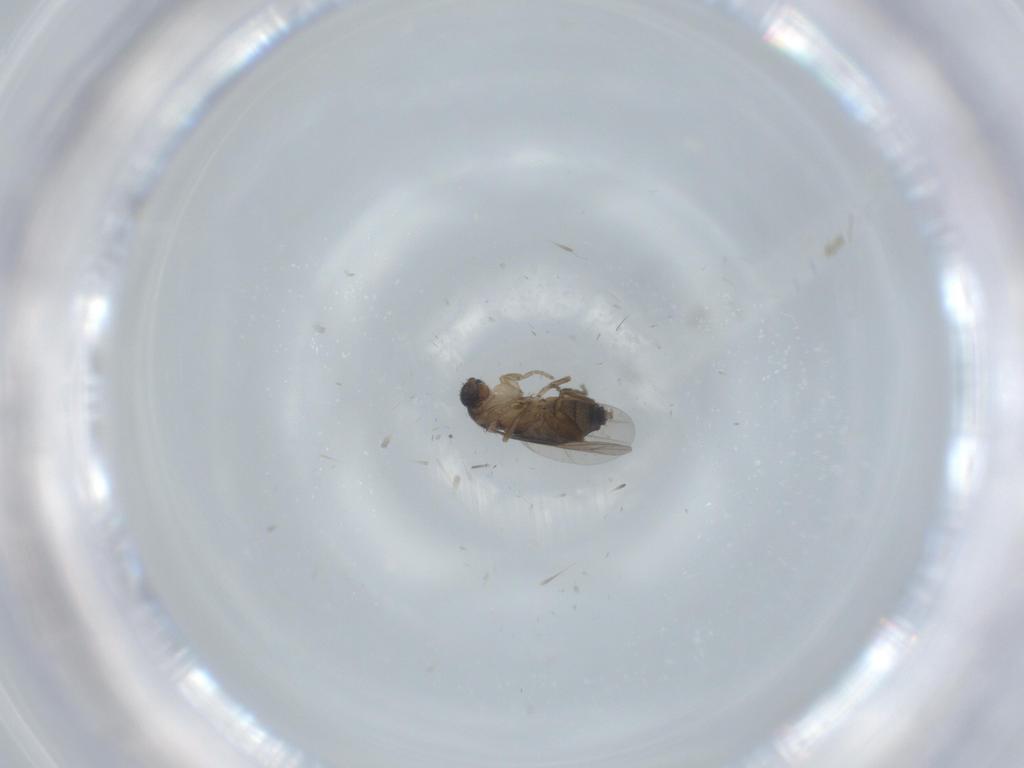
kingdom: Animalia
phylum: Arthropoda
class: Insecta
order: Diptera
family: Phoridae
